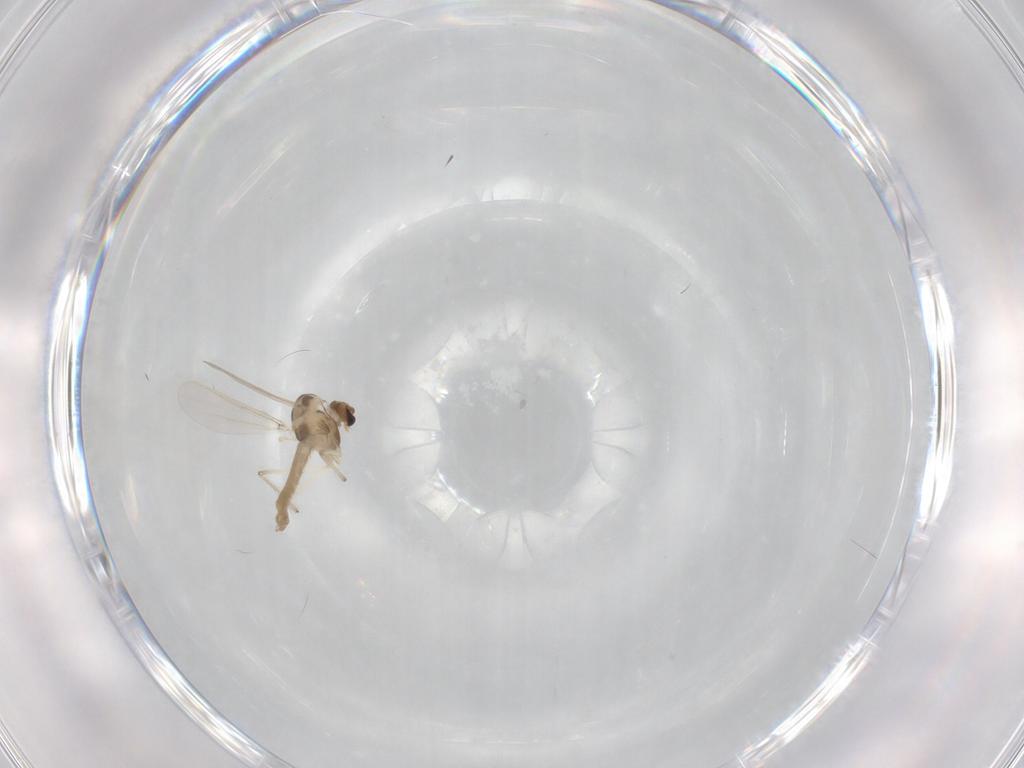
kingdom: Animalia
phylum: Arthropoda
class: Insecta
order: Diptera
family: Chironomidae
